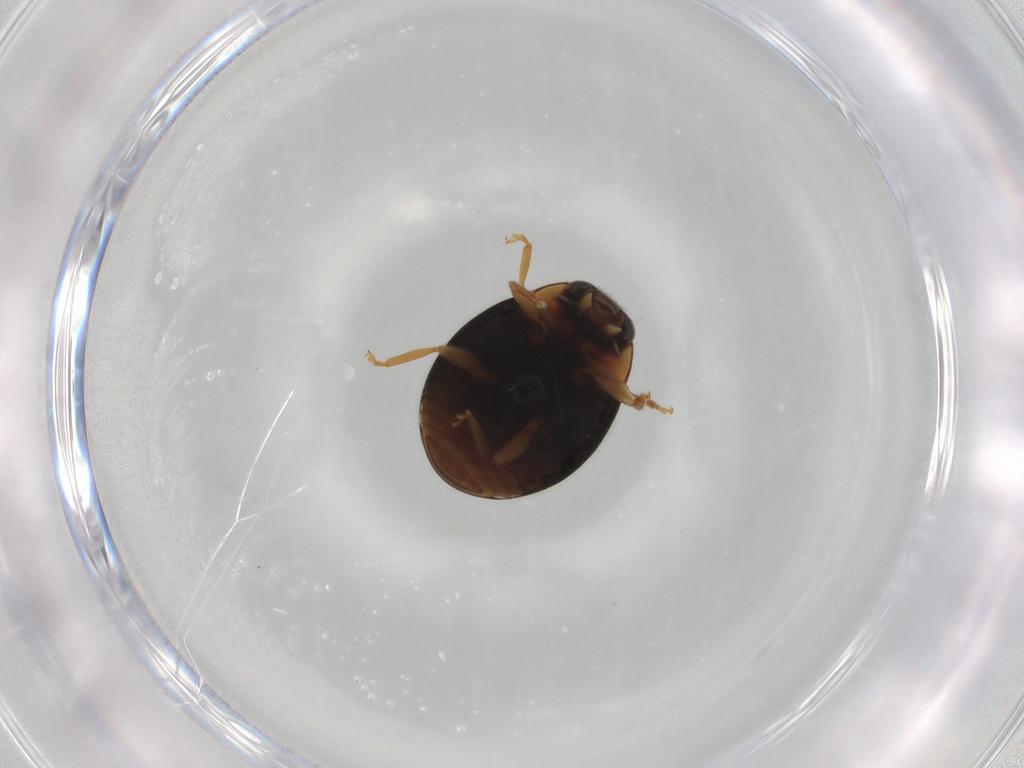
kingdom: Animalia
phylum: Arthropoda
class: Insecta
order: Coleoptera
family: Coccinellidae
